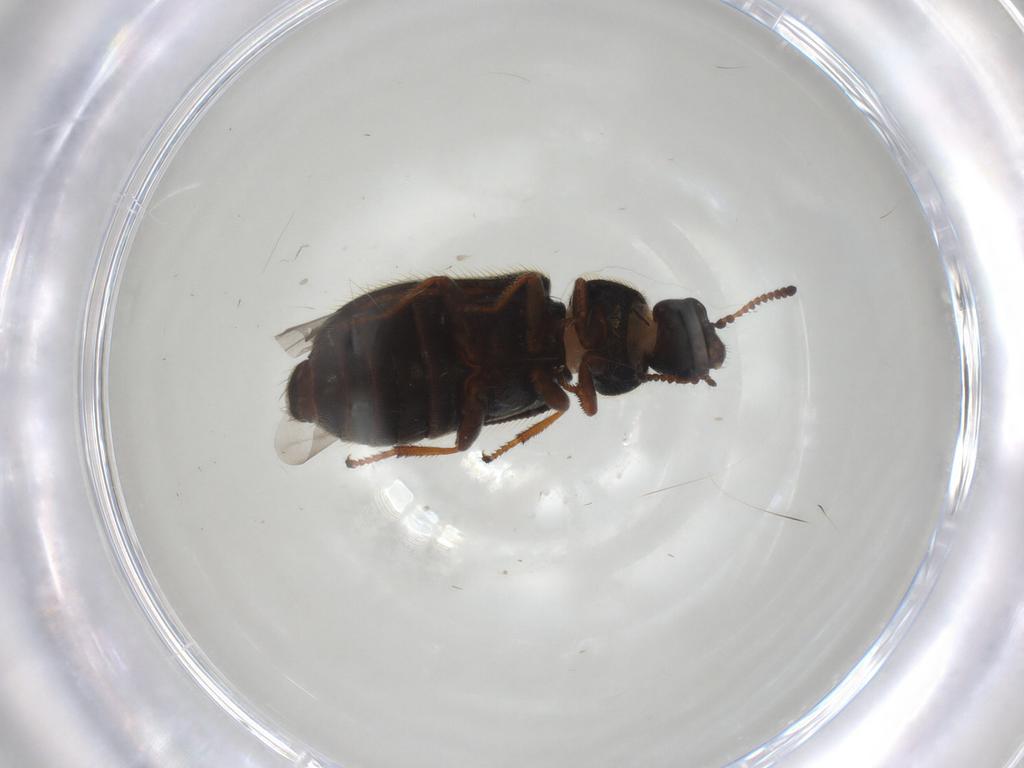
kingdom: Animalia
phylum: Arthropoda
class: Insecta
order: Coleoptera
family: Melyridae
